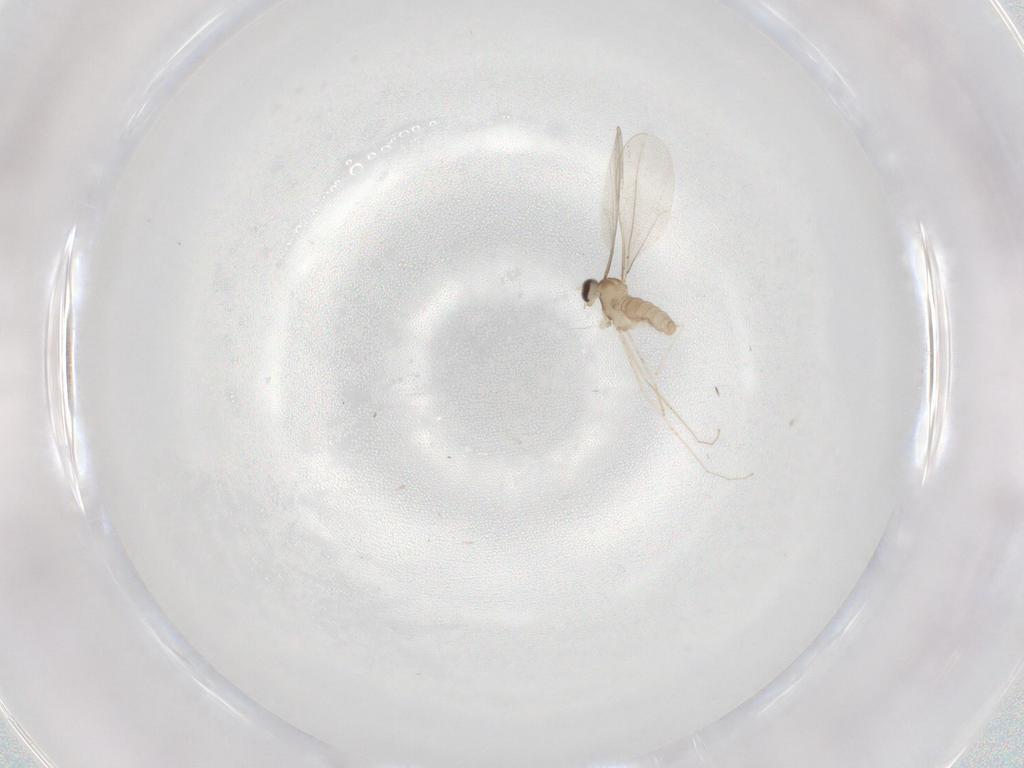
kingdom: Animalia
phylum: Arthropoda
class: Insecta
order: Diptera
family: Cecidomyiidae
